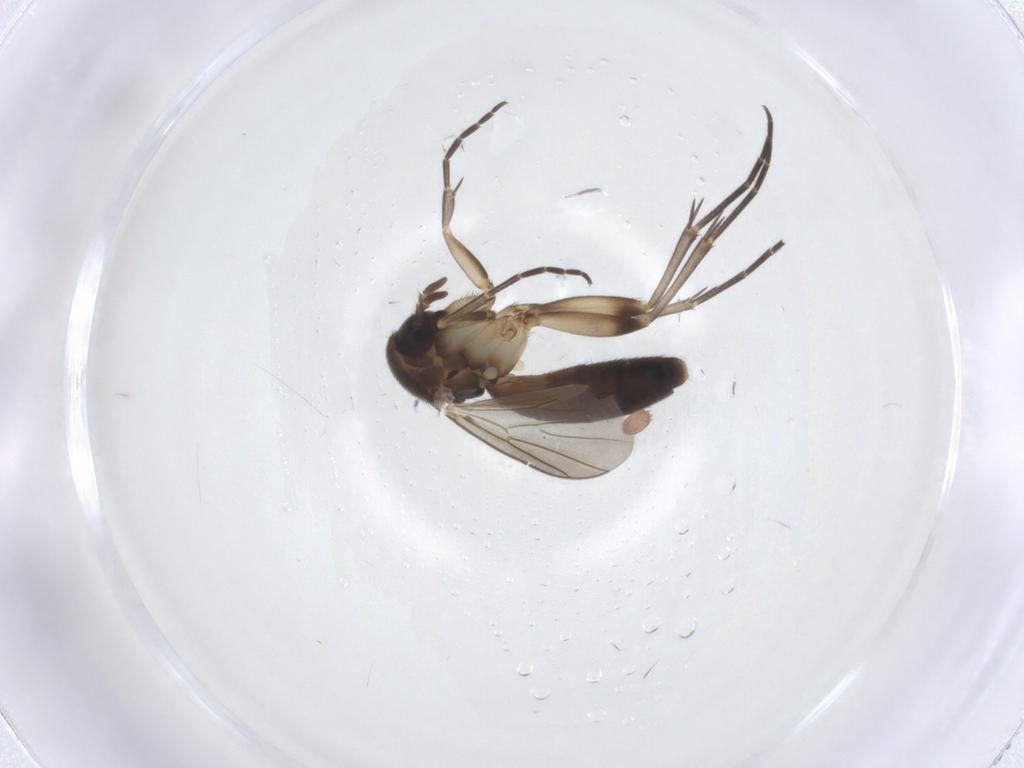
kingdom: Animalia
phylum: Arthropoda
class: Insecta
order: Diptera
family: Mycetophilidae
